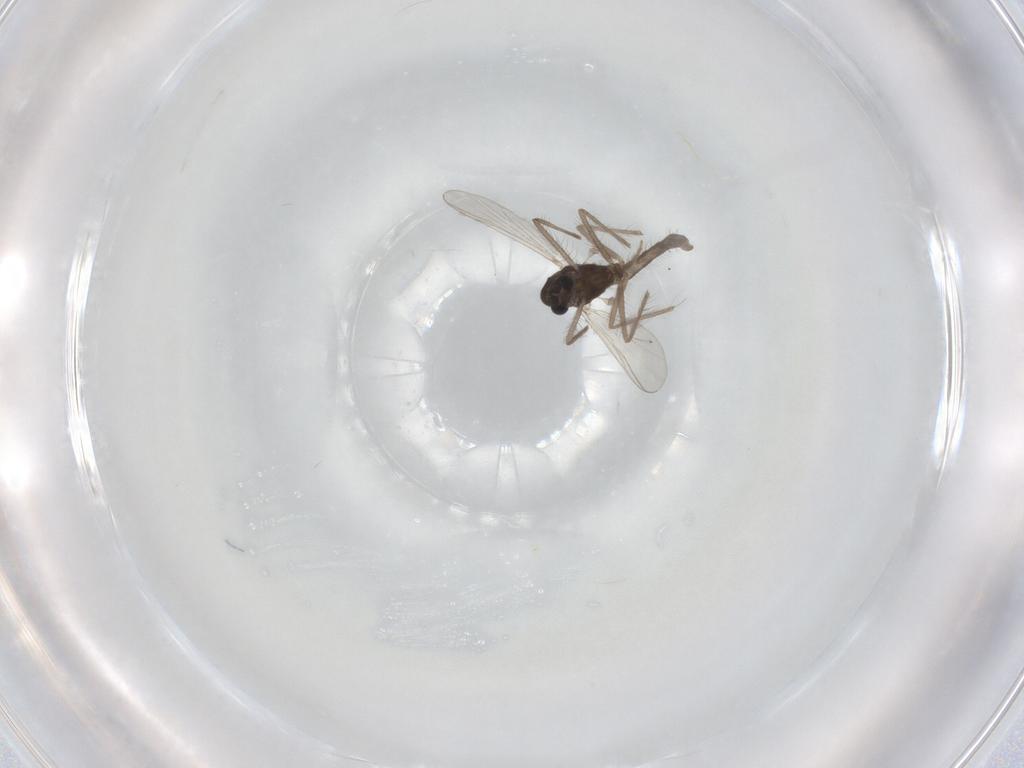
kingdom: Animalia
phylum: Arthropoda
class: Insecta
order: Diptera
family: Chironomidae
